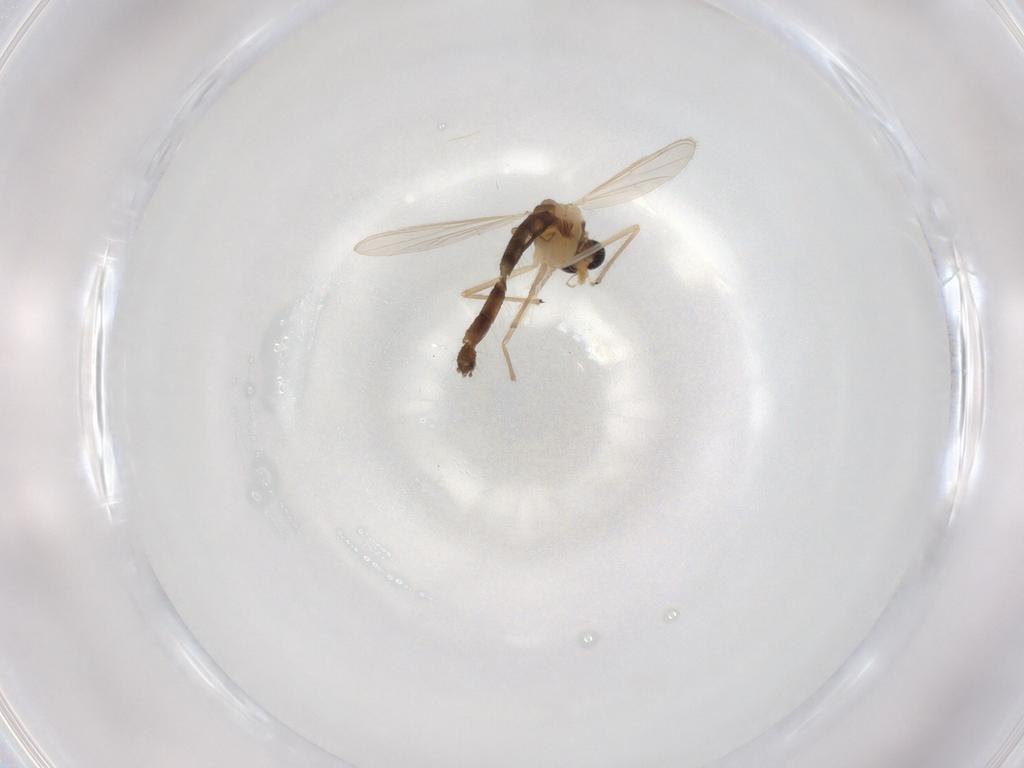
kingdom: Animalia
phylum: Arthropoda
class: Insecta
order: Diptera
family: Chironomidae
